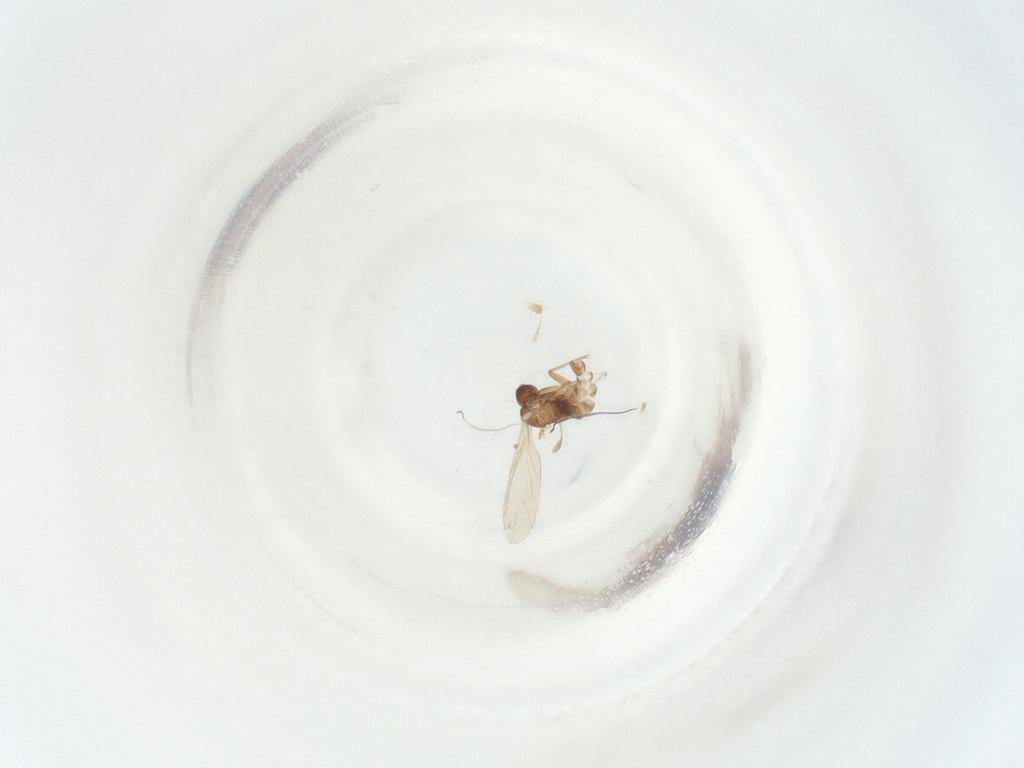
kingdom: Animalia
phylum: Arthropoda
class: Insecta
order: Diptera
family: Sciaridae
